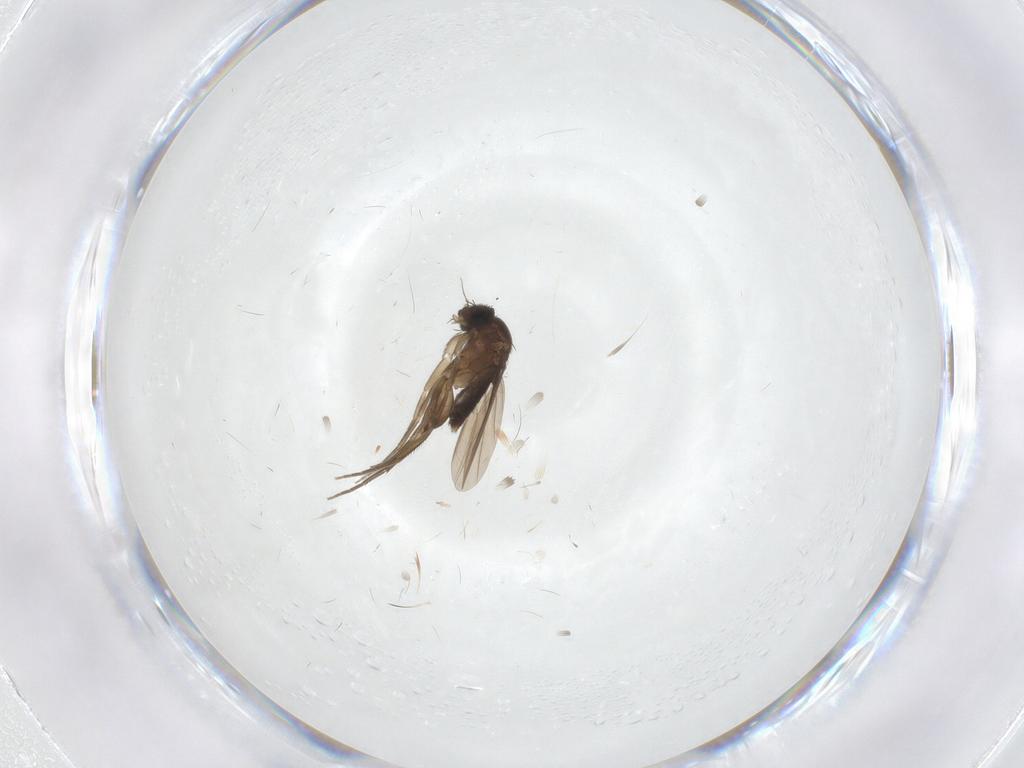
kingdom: Animalia
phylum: Arthropoda
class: Insecta
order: Diptera
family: Phoridae
